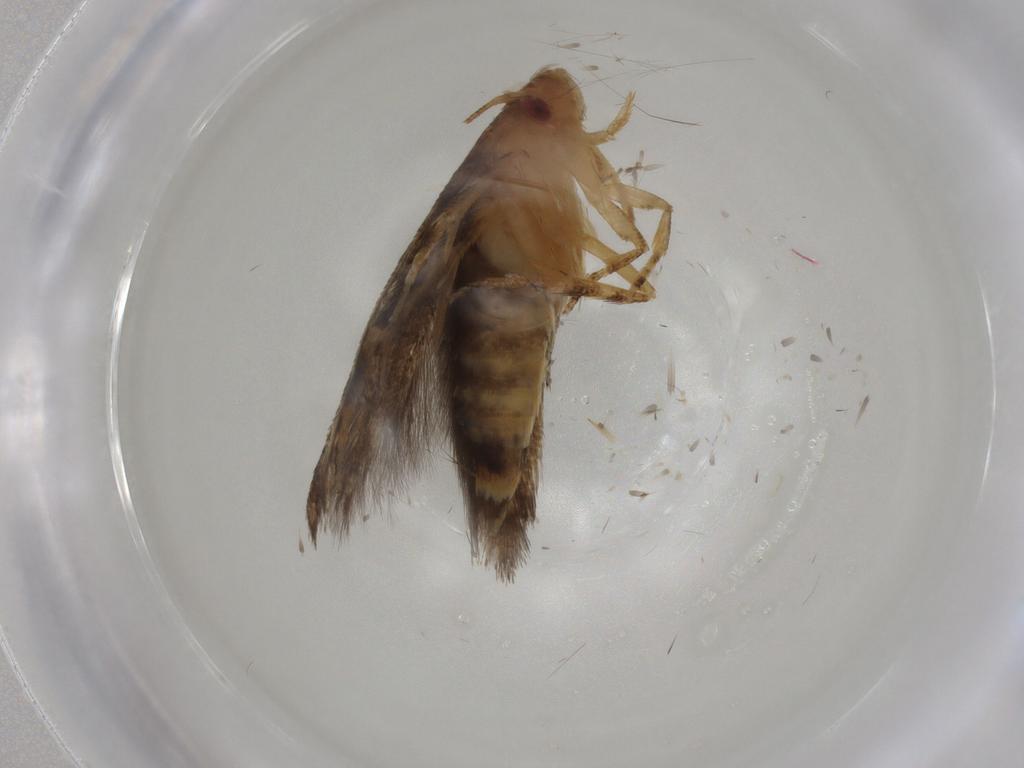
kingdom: Animalia
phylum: Arthropoda
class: Insecta
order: Lepidoptera
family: Momphidae
